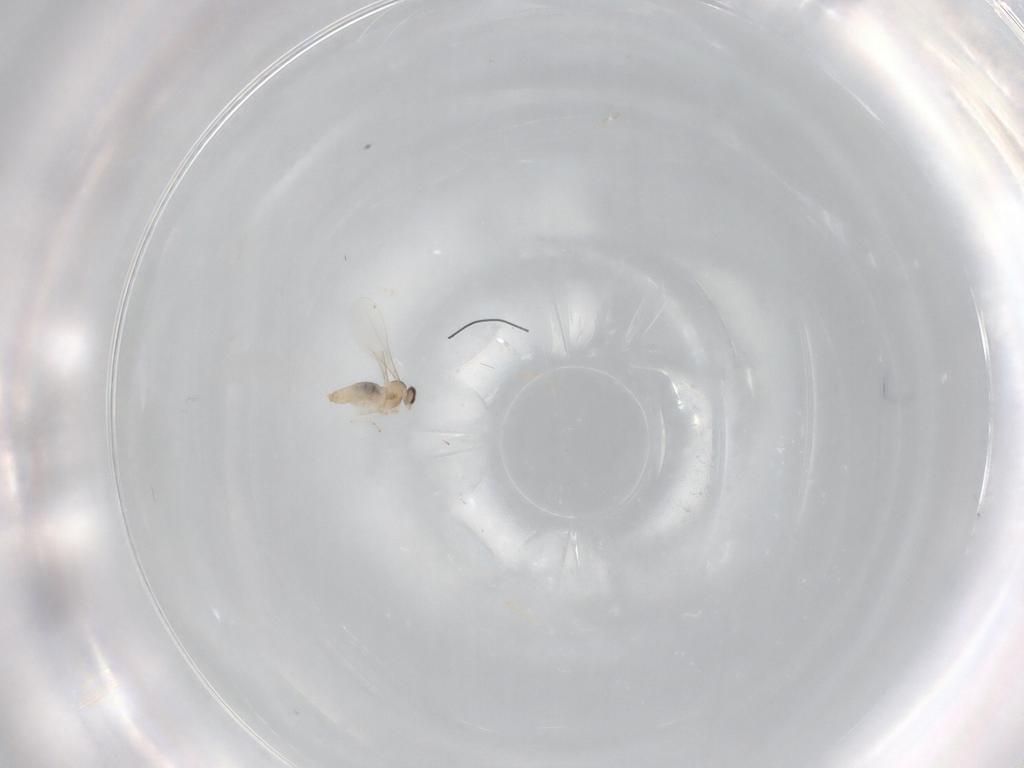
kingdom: Animalia
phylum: Arthropoda
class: Insecta
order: Diptera
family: Cecidomyiidae
